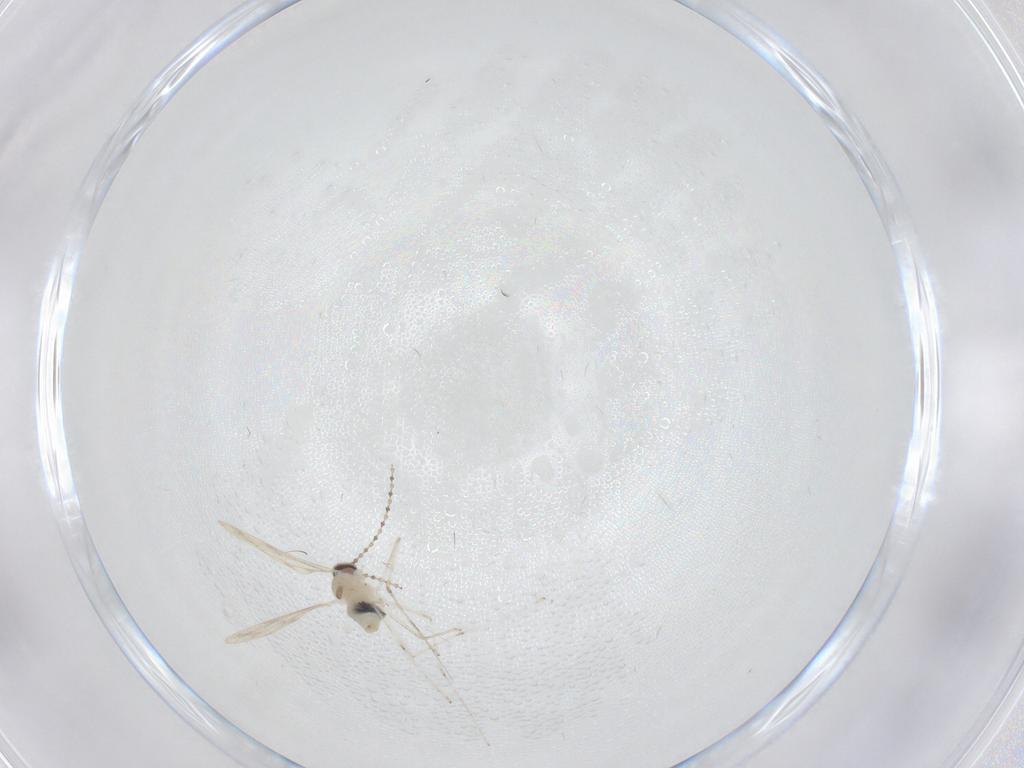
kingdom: Animalia
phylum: Arthropoda
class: Insecta
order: Diptera
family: Cecidomyiidae
